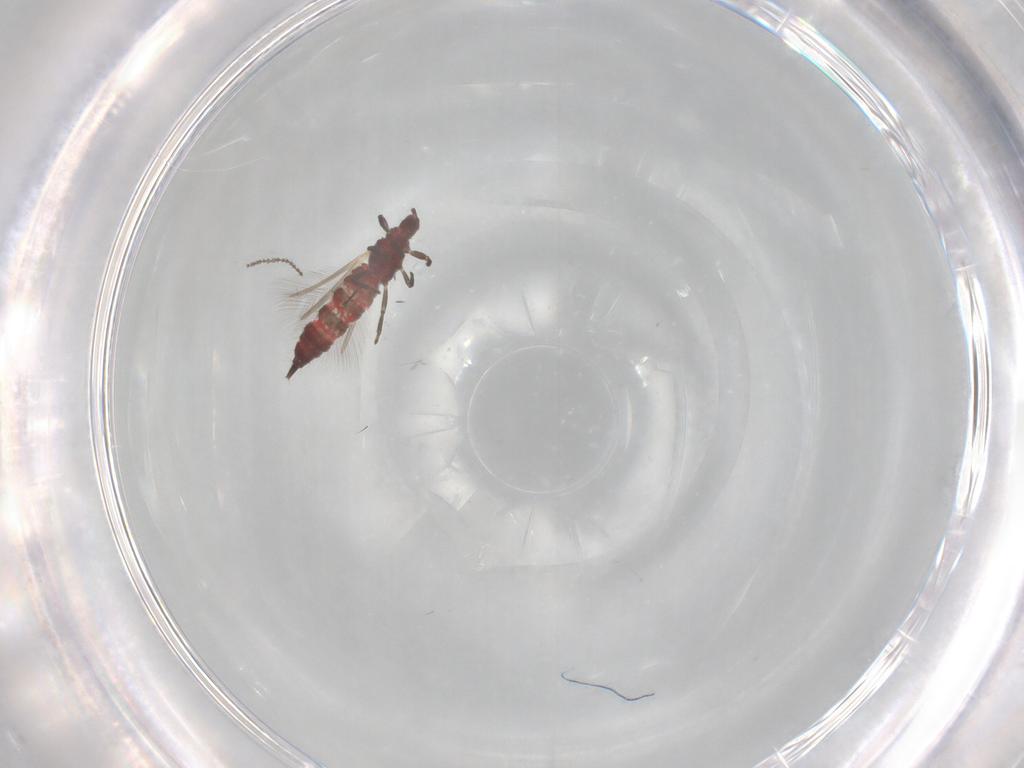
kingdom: Animalia
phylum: Arthropoda
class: Insecta
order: Thysanoptera
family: Phlaeothripidae
